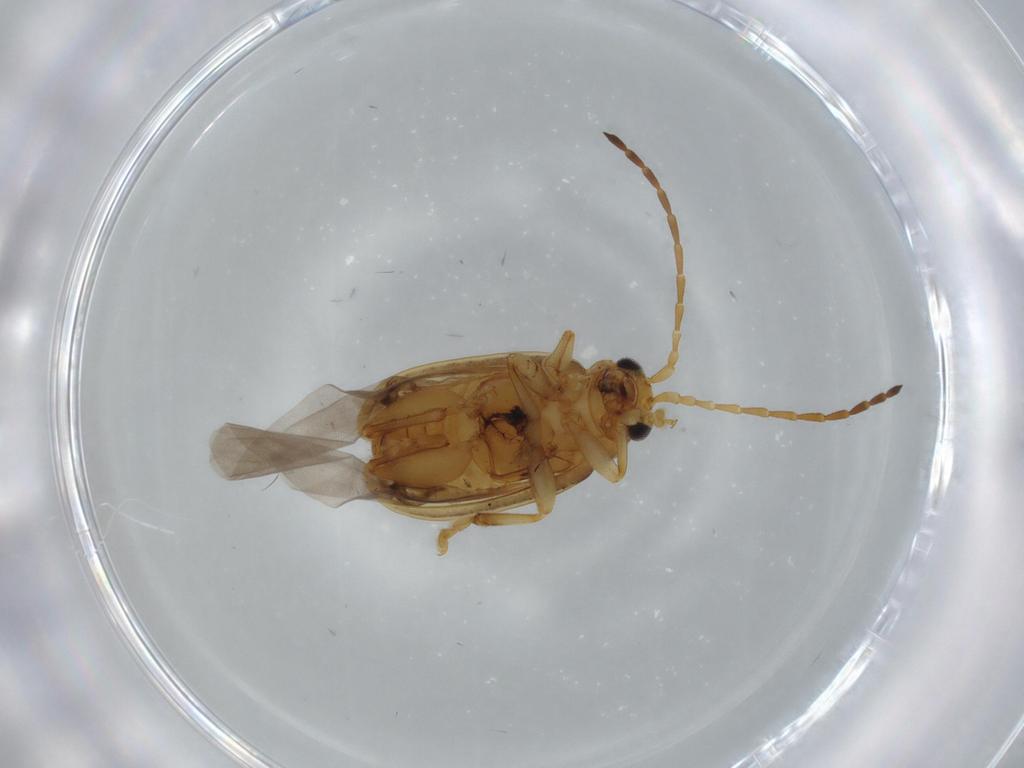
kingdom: Animalia
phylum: Arthropoda
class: Insecta
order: Coleoptera
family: Chrysomelidae
